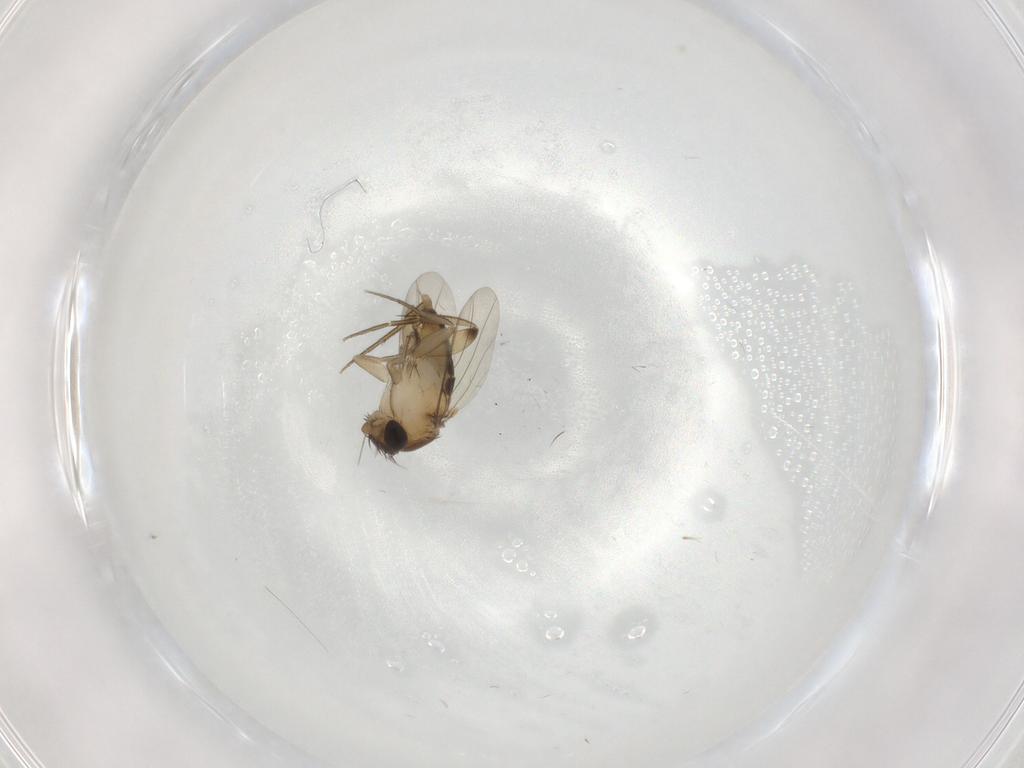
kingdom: Animalia
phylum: Arthropoda
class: Insecta
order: Diptera
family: Phoridae
